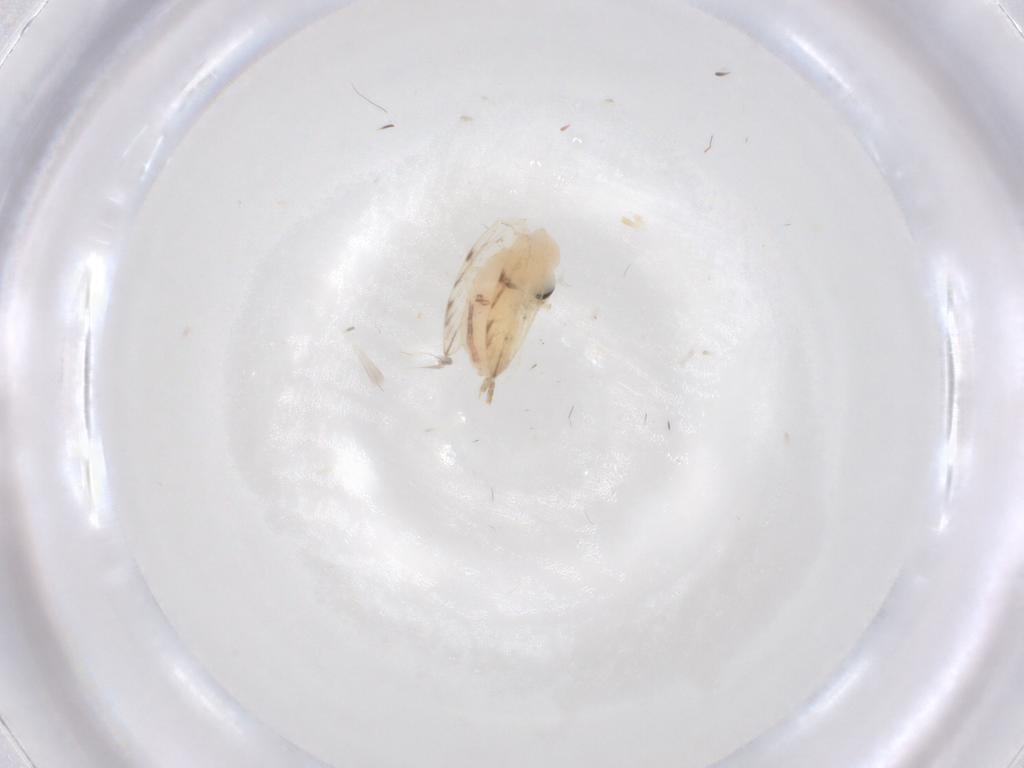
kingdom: Animalia
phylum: Arthropoda
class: Insecta
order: Diptera
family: Psychodidae
